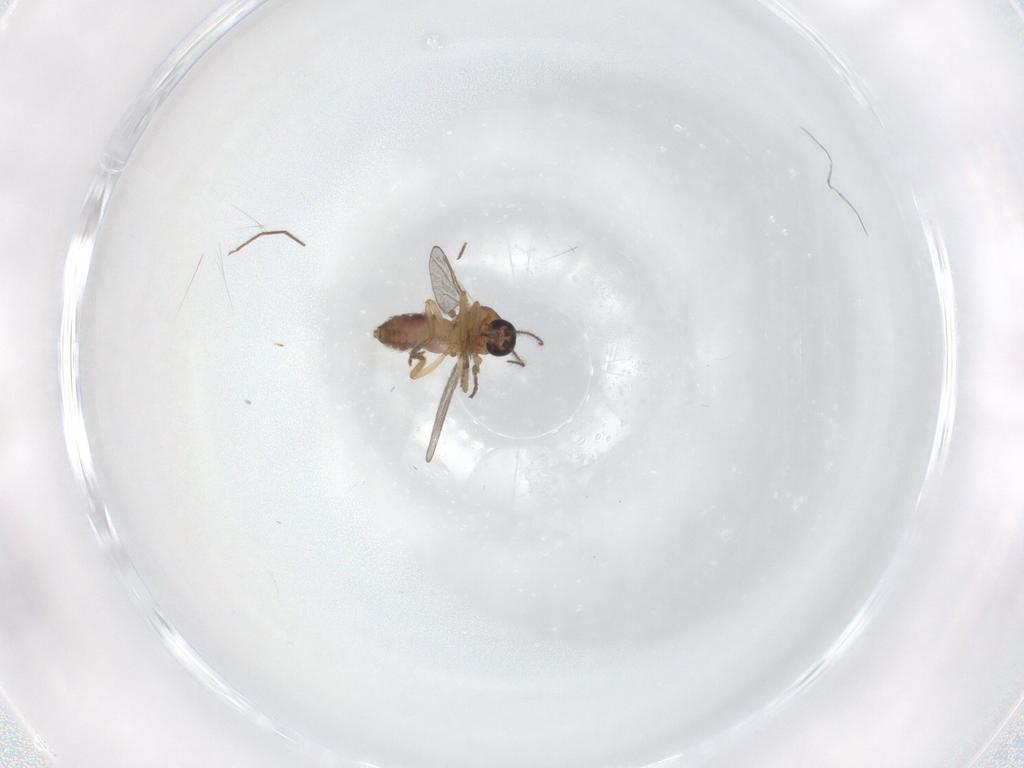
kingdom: Animalia
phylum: Arthropoda
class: Insecta
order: Diptera
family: Chironomidae
